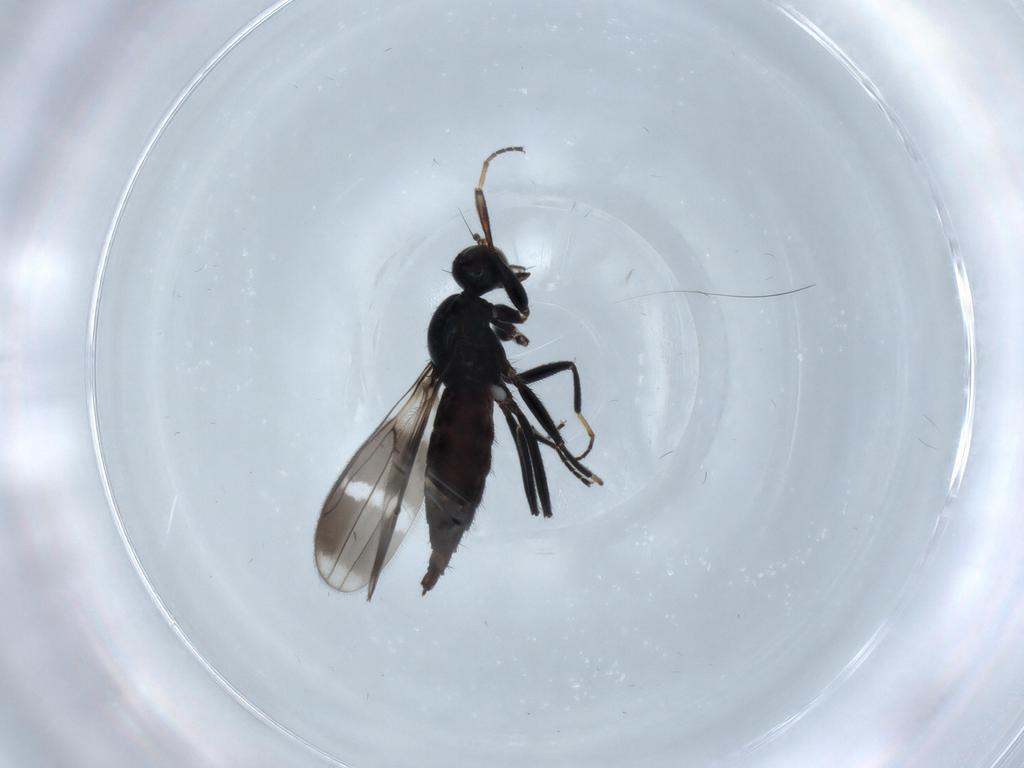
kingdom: Animalia
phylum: Arthropoda
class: Insecta
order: Diptera
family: Hybotidae
